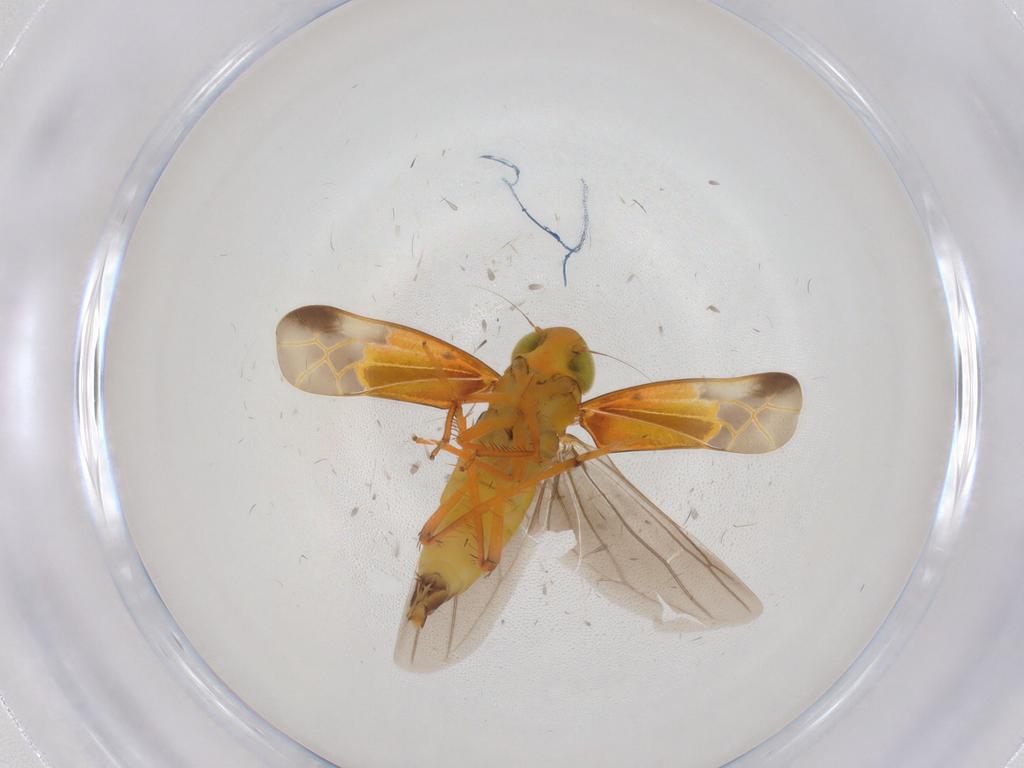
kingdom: Animalia
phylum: Arthropoda
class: Insecta
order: Hemiptera
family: Cicadellidae
